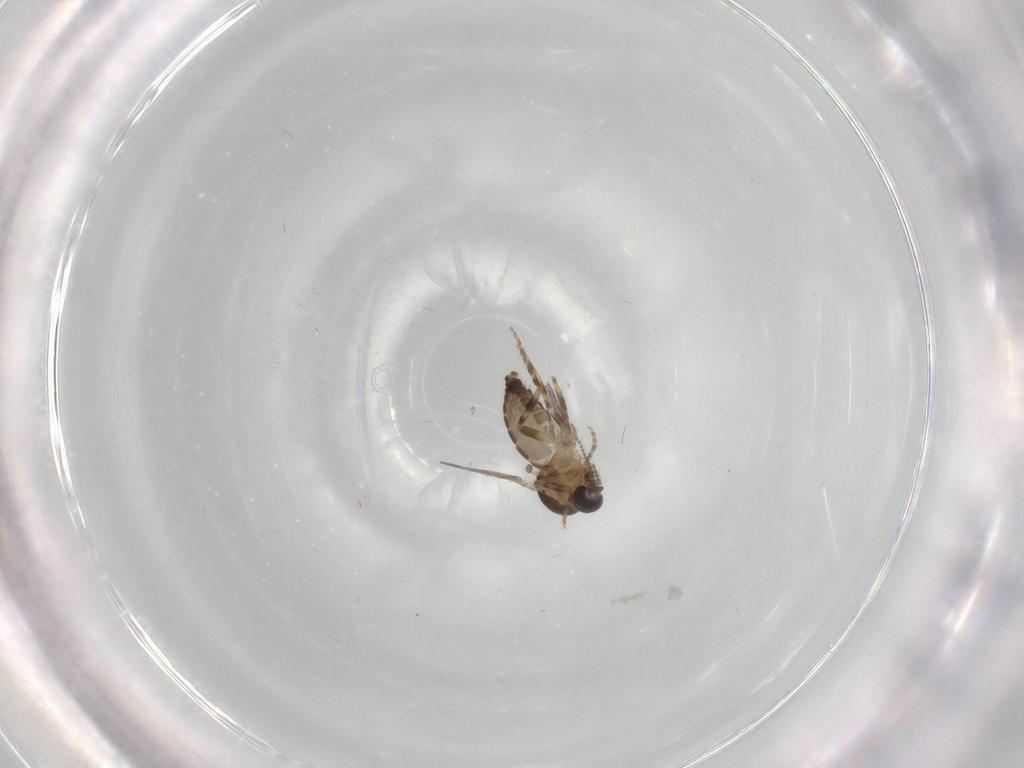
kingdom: Animalia
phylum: Arthropoda
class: Insecta
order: Diptera
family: Ceratopogonidae
